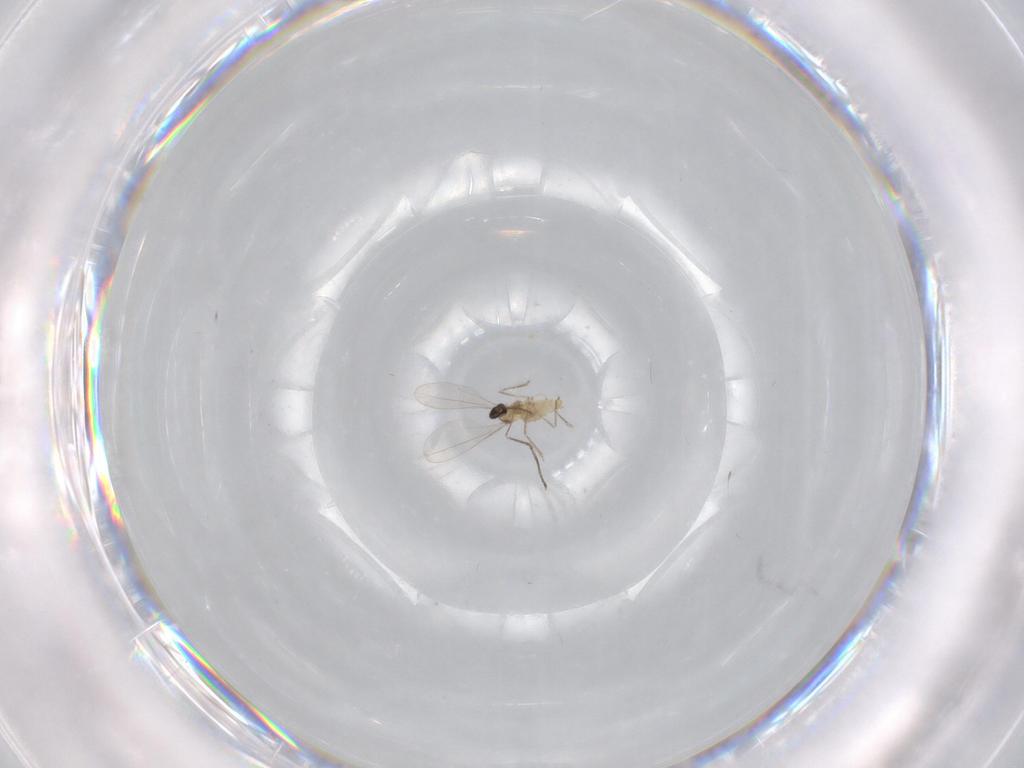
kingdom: Animalia
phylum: Arthropoda
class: Insecta
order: Diptera
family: Cecidomyiidae
